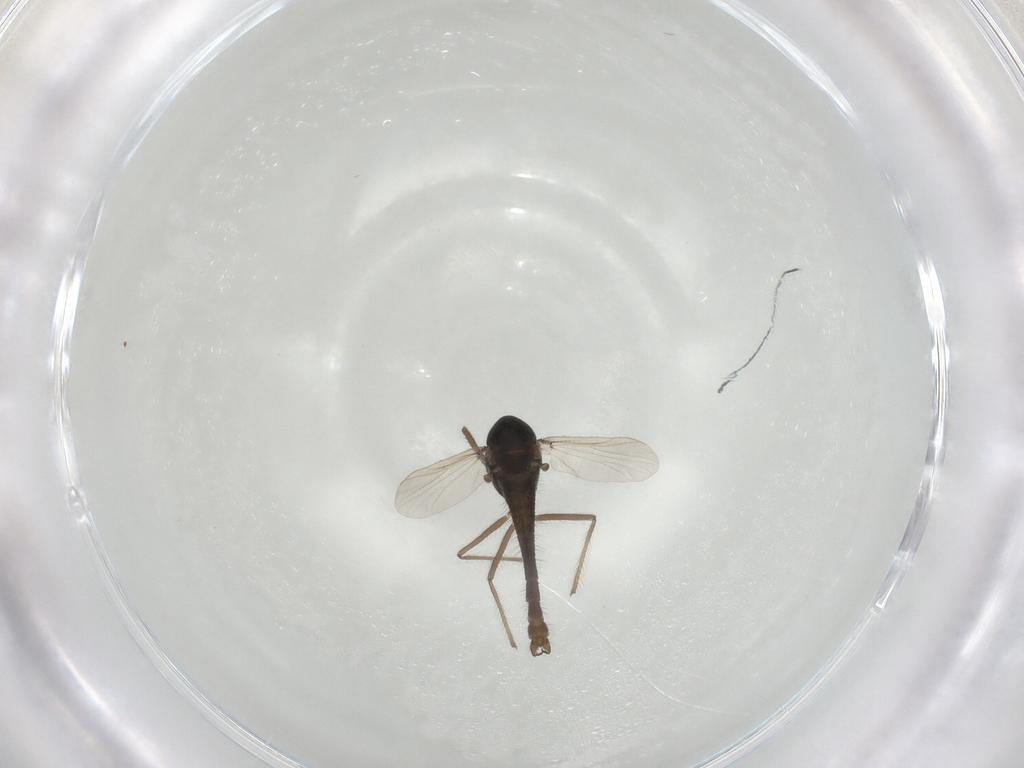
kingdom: Animalia
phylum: Arthropoda
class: Insecta
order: Diptera
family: Chironomidae
